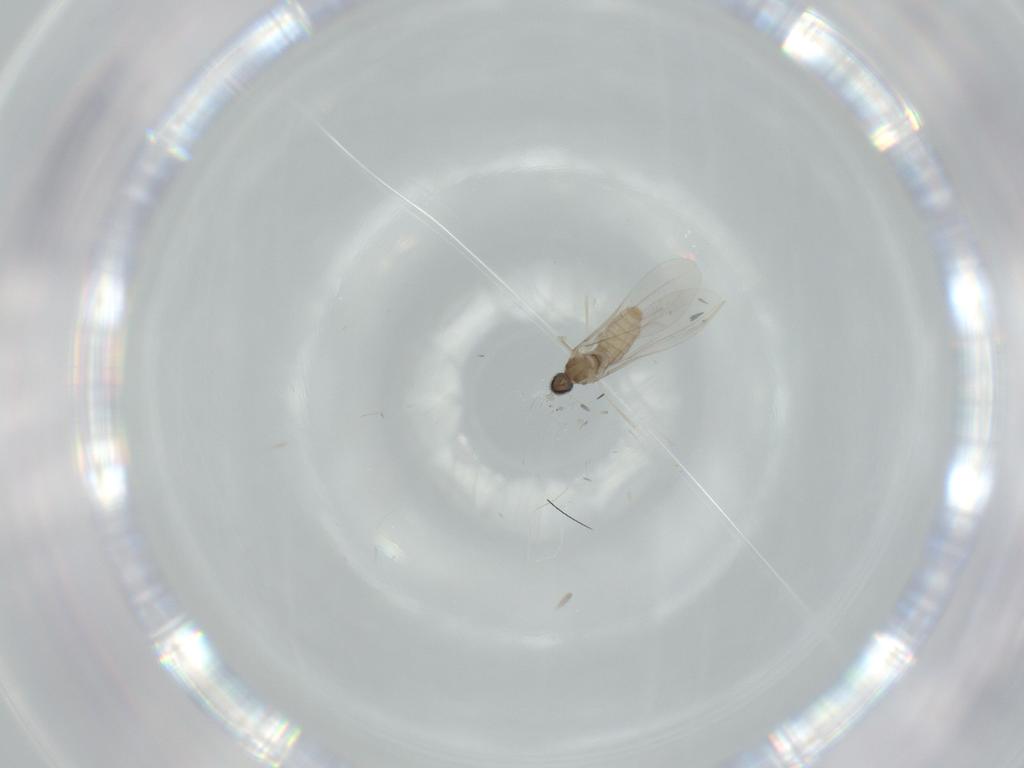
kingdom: Animalia
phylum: Arthropoda
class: Insecta
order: Diptera
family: Cecidomyiidae
